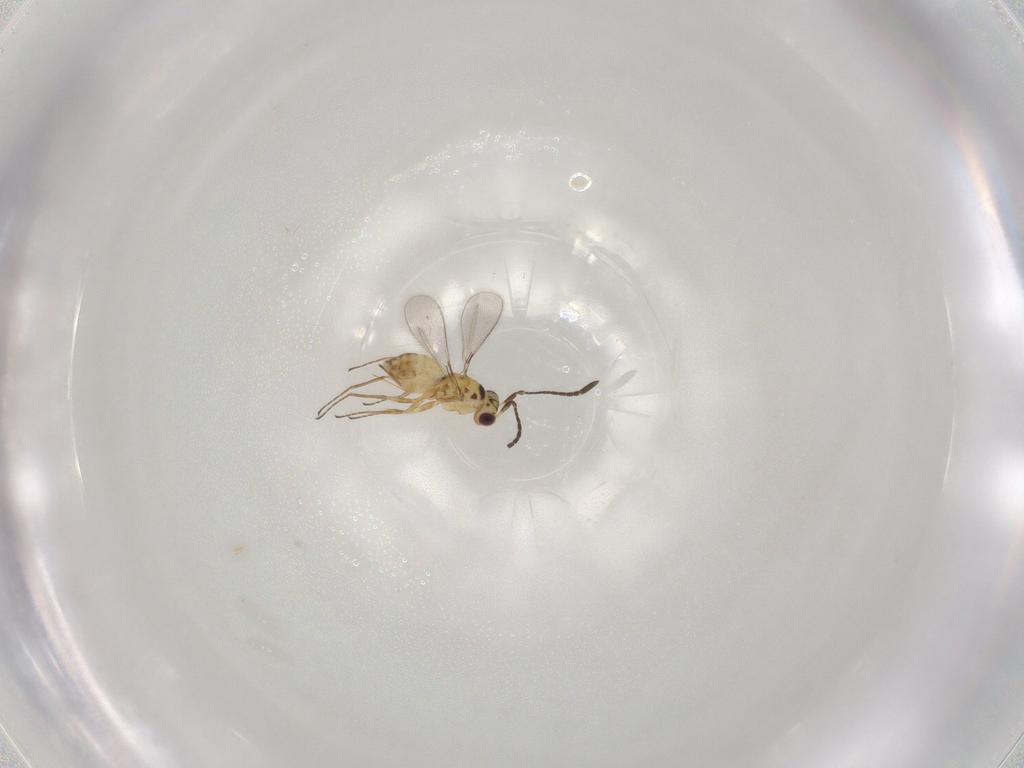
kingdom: Animalia
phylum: Arthropoda
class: Insecta
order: Hymenoptera
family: Mymaridae
